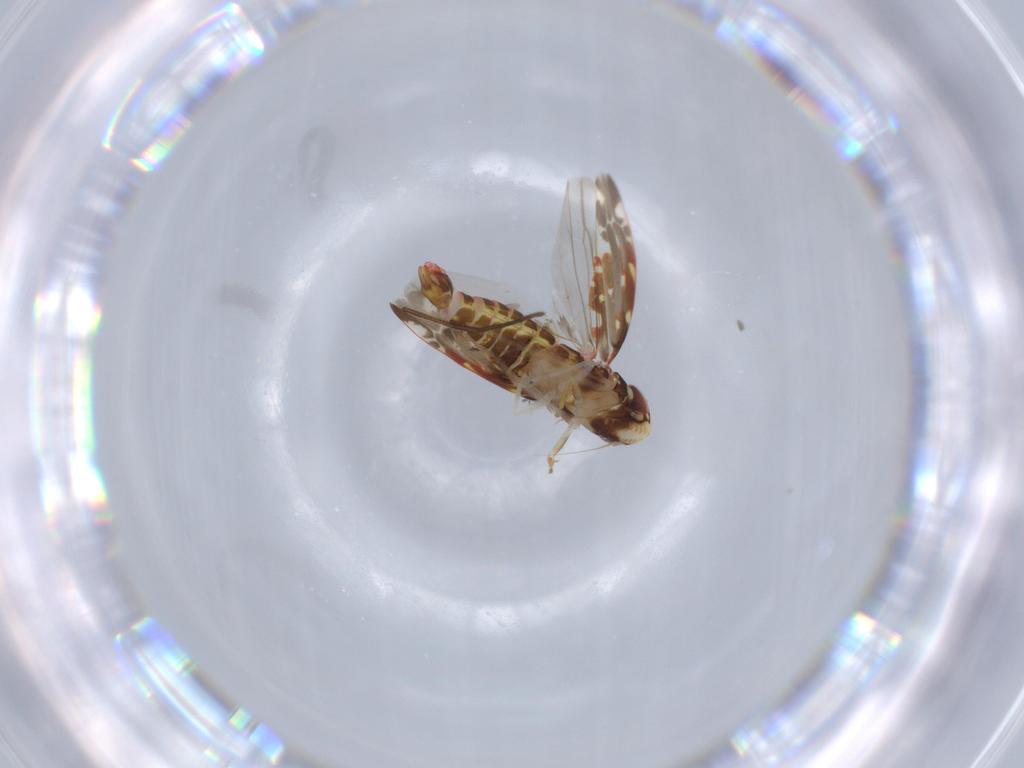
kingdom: Animalia
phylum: Arthropoda
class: Insecta
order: Hemiptera
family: Cicadellidae
